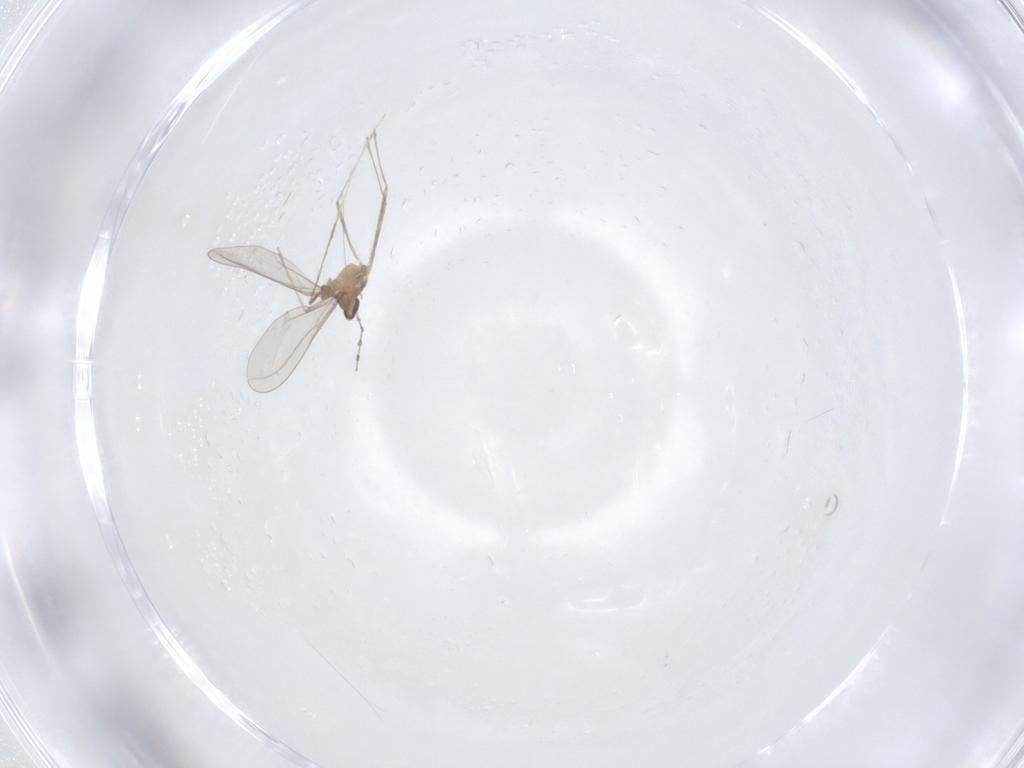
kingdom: Animalia
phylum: Arthropoda
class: Insecta
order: Diptera
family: Cecidomyiidae
